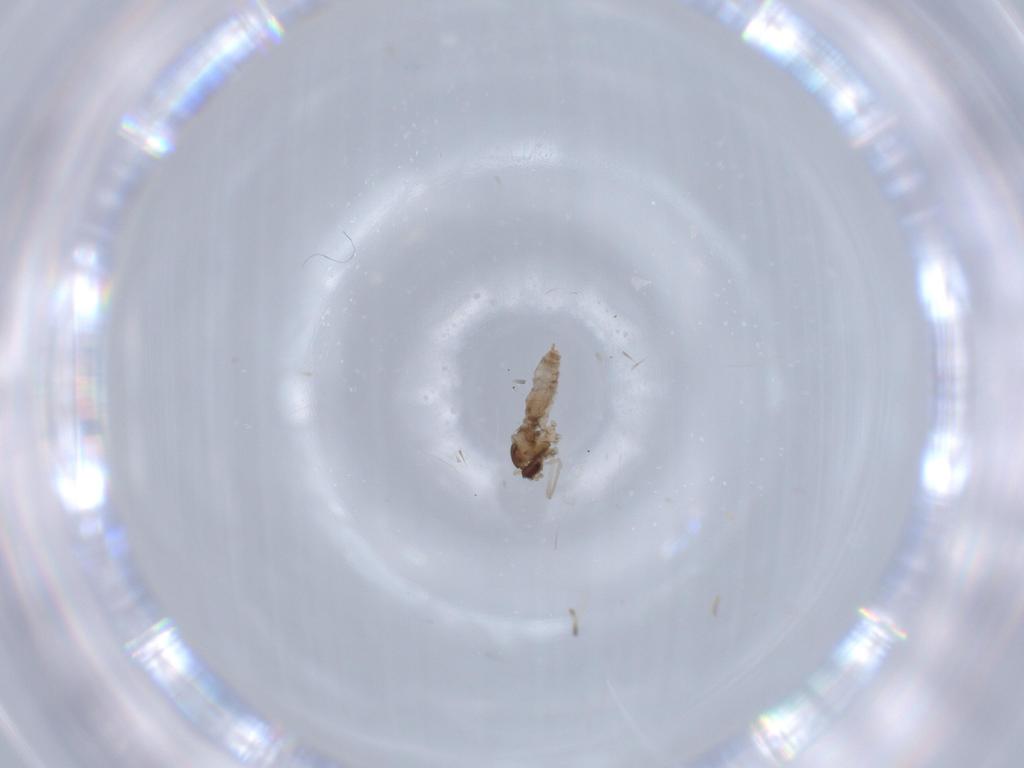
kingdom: Animalia
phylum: Arthropoda
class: Insecta
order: Diptera
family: Cecidomyiidae
